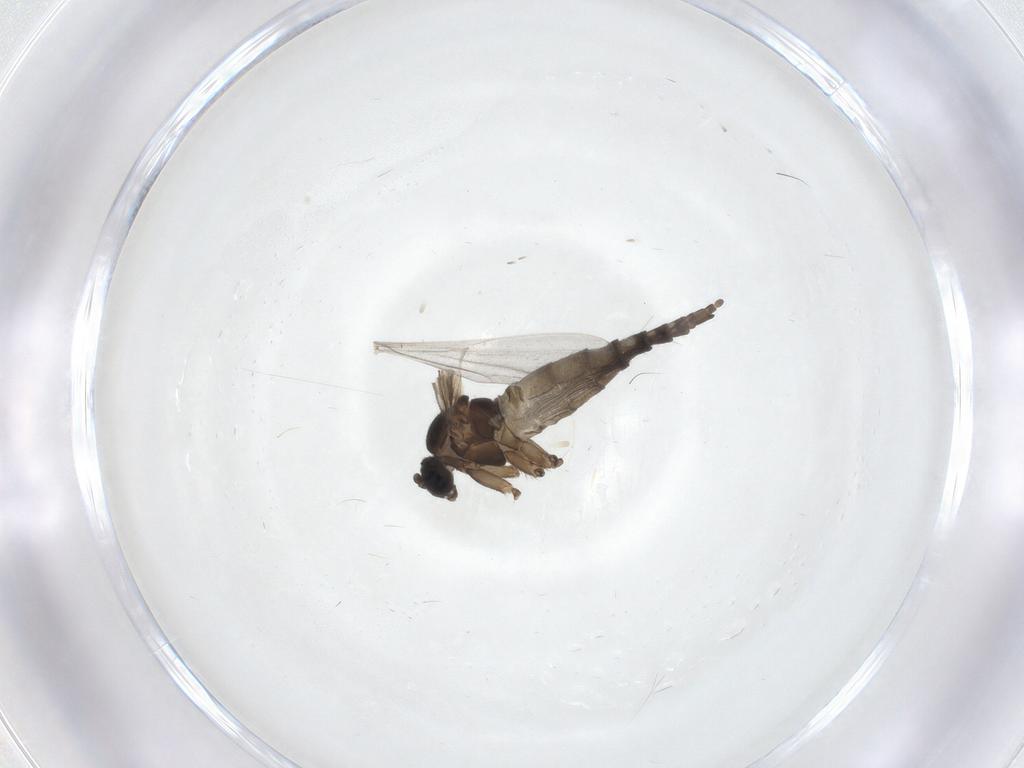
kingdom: Animalia
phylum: Arthropoda
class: Insecta
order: Diptera
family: Sciaridae
